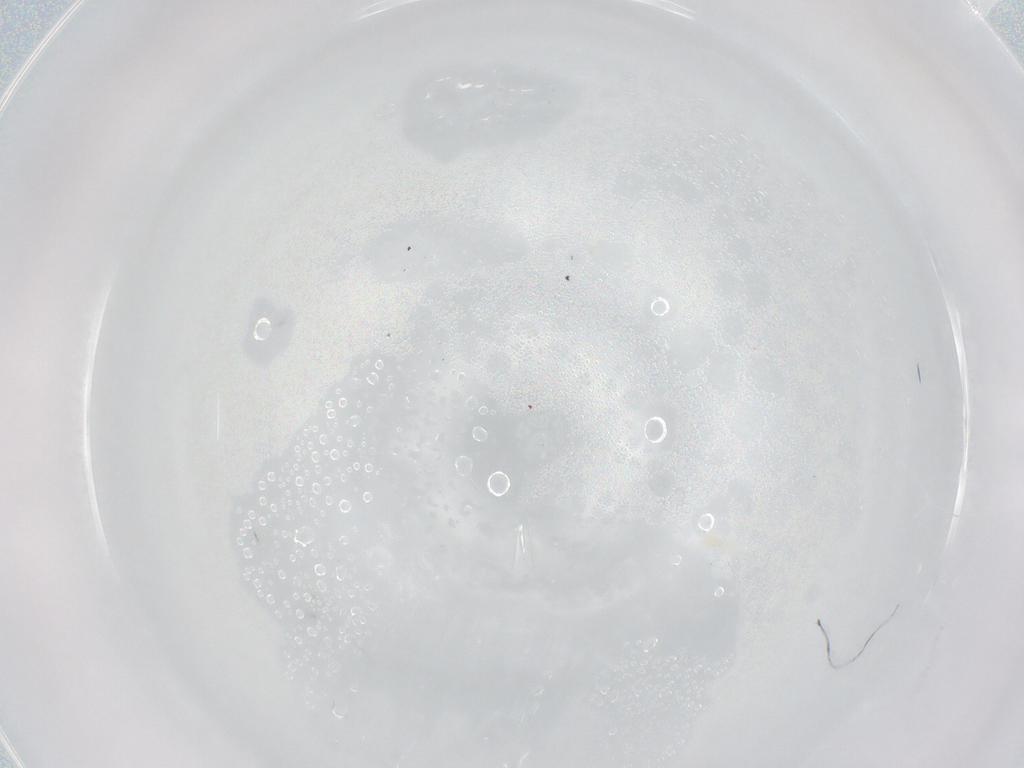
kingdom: Animalia
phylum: Arthropoda
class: Arachnida
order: Trombidiformes
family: Tydeidae
